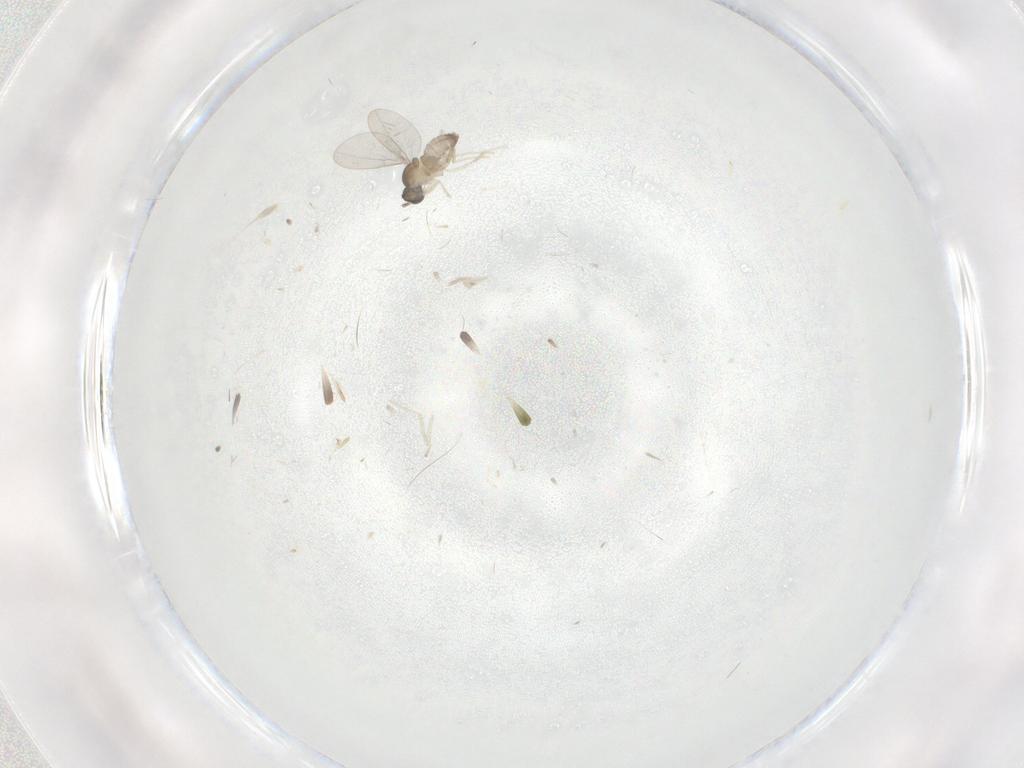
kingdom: Animalia
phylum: Arthropoda
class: Insecta
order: Diptera
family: Cecidomyiidae
